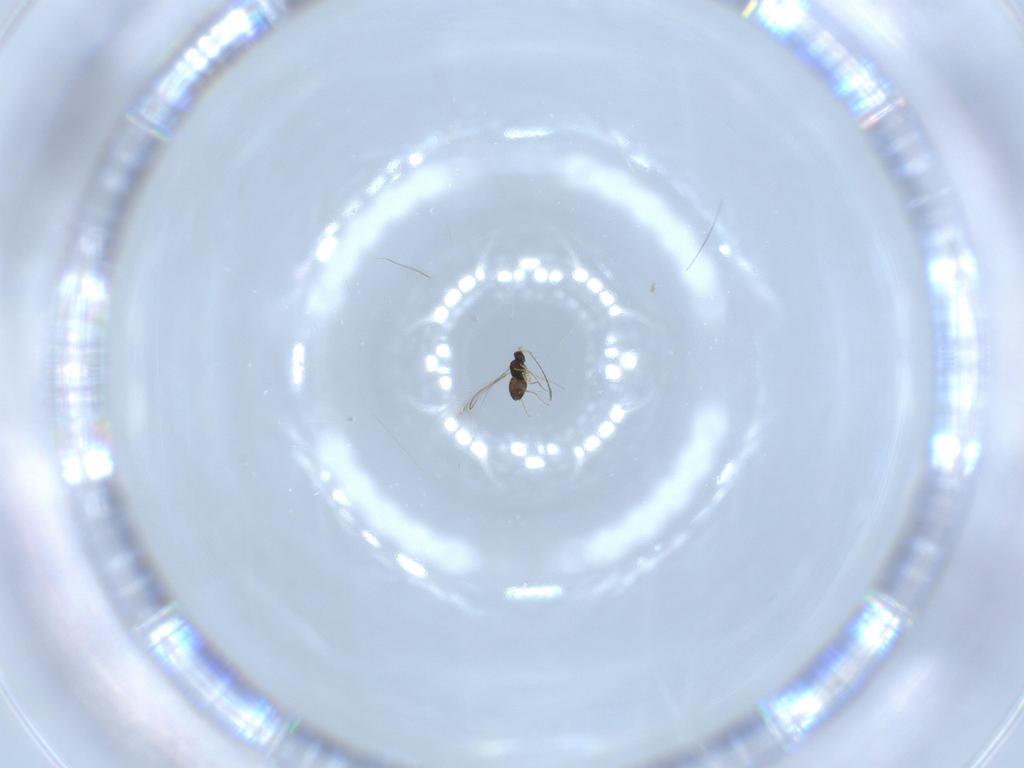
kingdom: Animalia
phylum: Arthropoda
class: Insecta
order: Hymenoptera
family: Mymaridae
